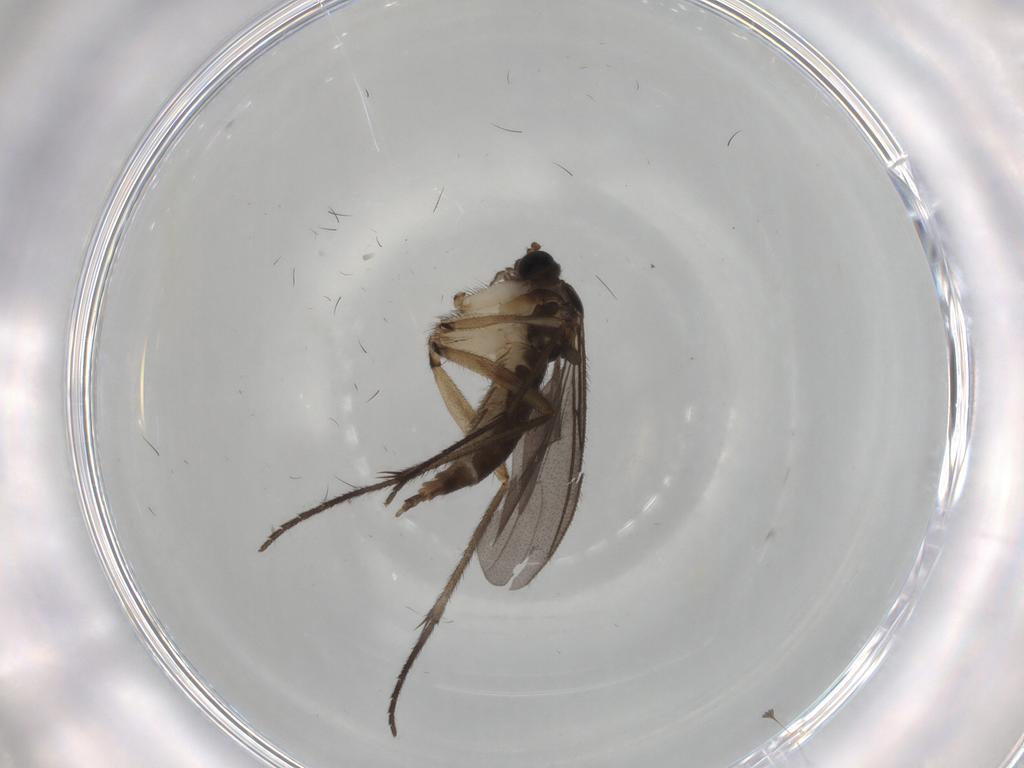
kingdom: Animalia
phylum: Arthropoda
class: Insecta
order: Diptera
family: Sciaridae
